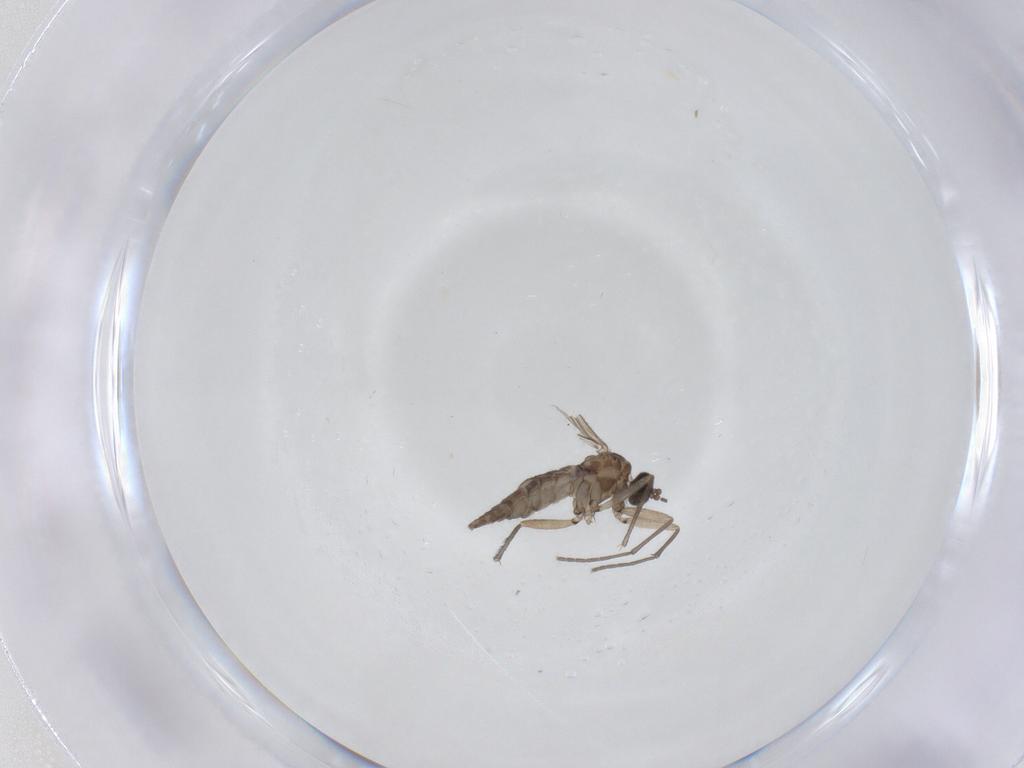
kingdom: Animalia
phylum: Arthropoda
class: Insecta
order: Diptera
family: Sciaridae
